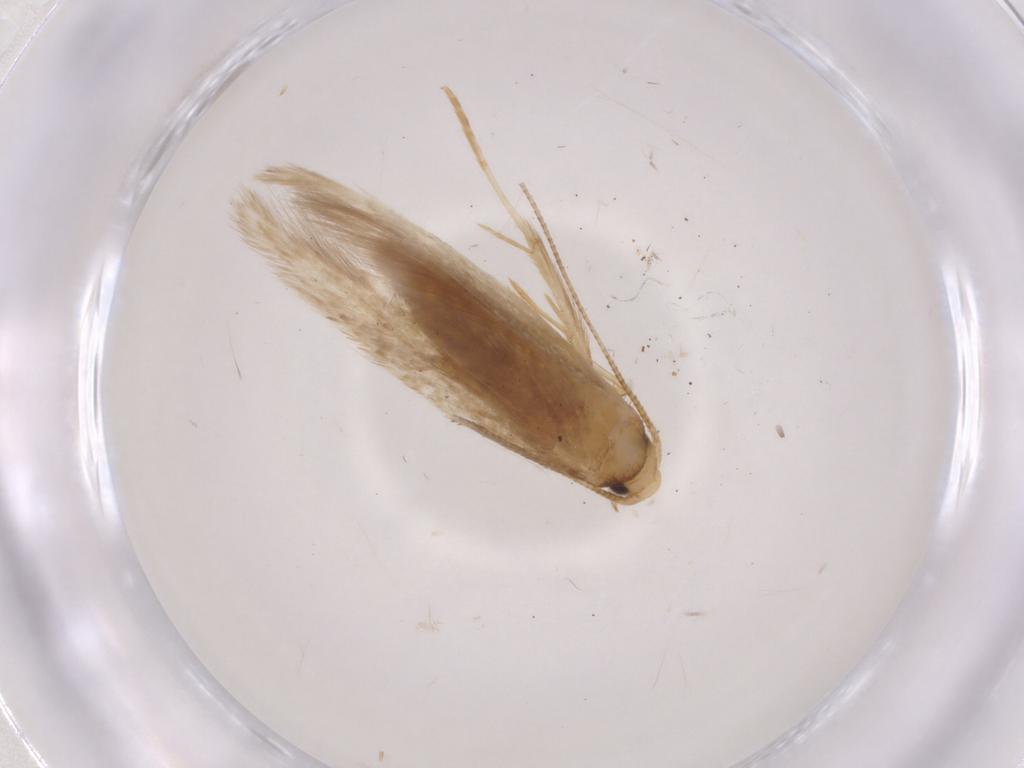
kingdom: Animalia
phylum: Arthropoda
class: Insecta
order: Lepidoptera
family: Tineidae
